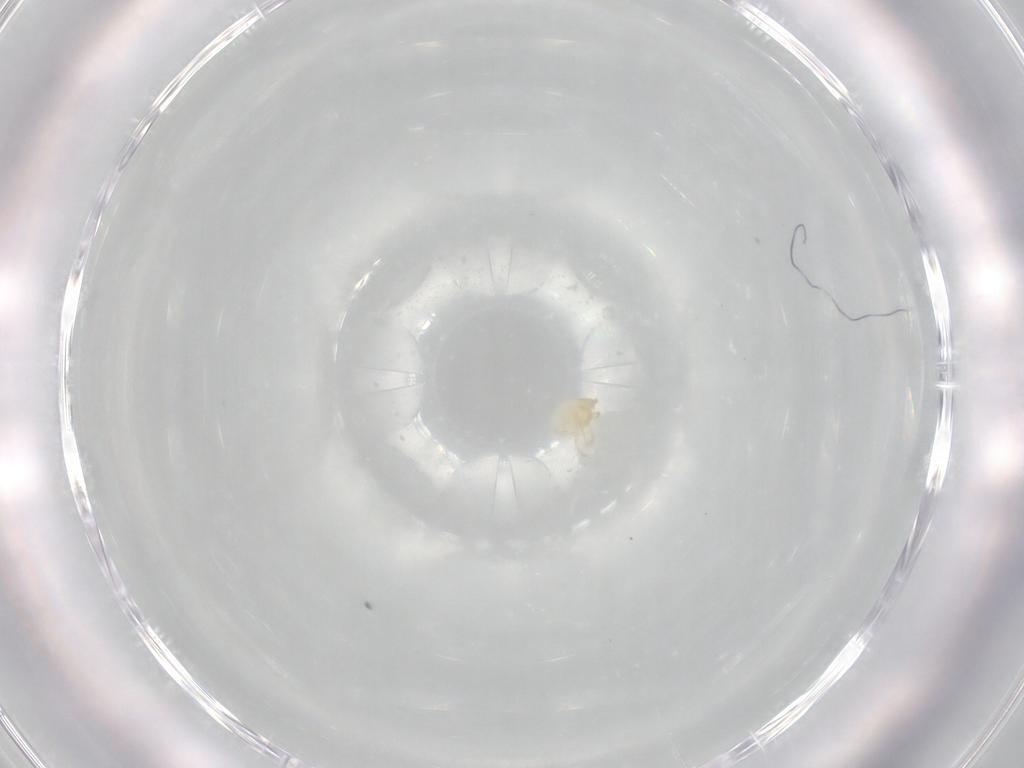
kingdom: Animalia
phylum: Arthropoda
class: Arachnida
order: Trombidiformes
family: Trombidiidae
